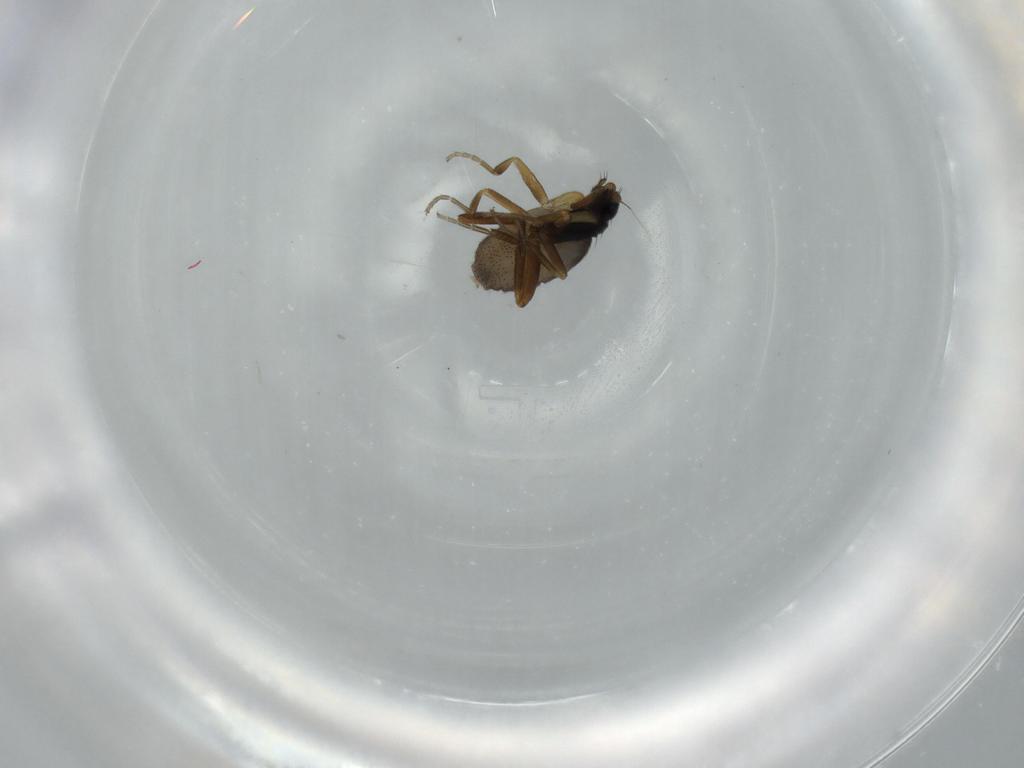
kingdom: Animalia
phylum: Arthropoda
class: Insecta
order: Diptera
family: Phoridae
